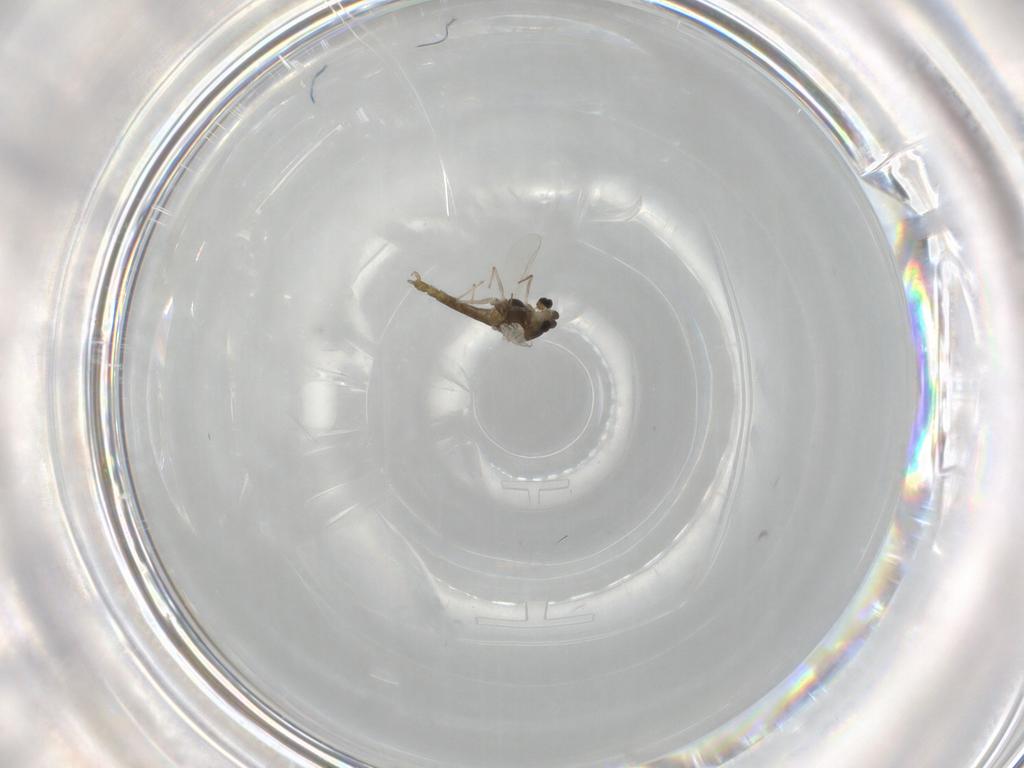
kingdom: Animalia
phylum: Arthropoda
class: Insecta
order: Diptera
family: Chironomidae
